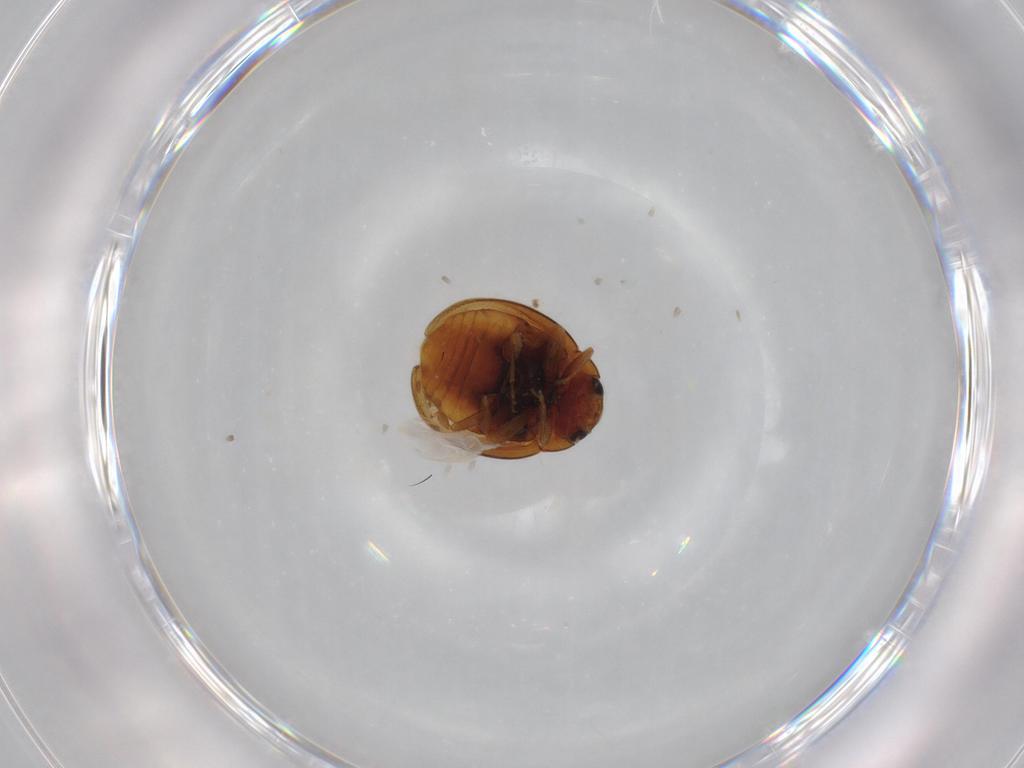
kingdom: Animalia
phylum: Arthropoda
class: Insecta
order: Coleoptera
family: Coccinellidae
